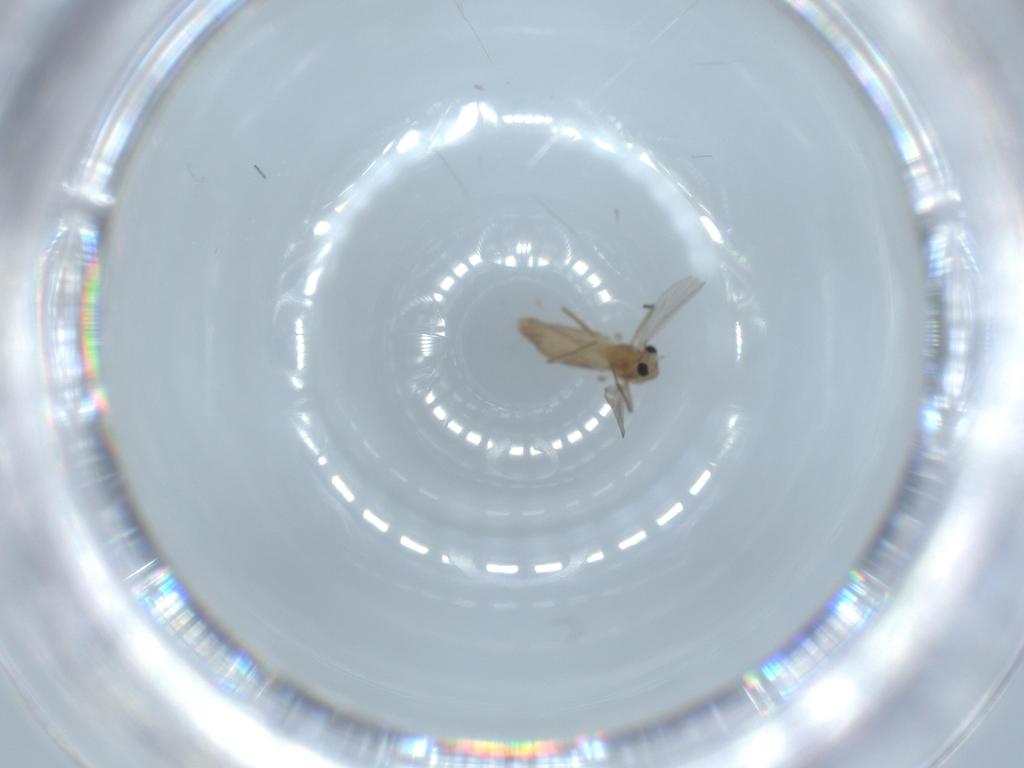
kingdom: Animalia
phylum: Arthropoda
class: Insecta
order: Diptera
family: Chironomidae
